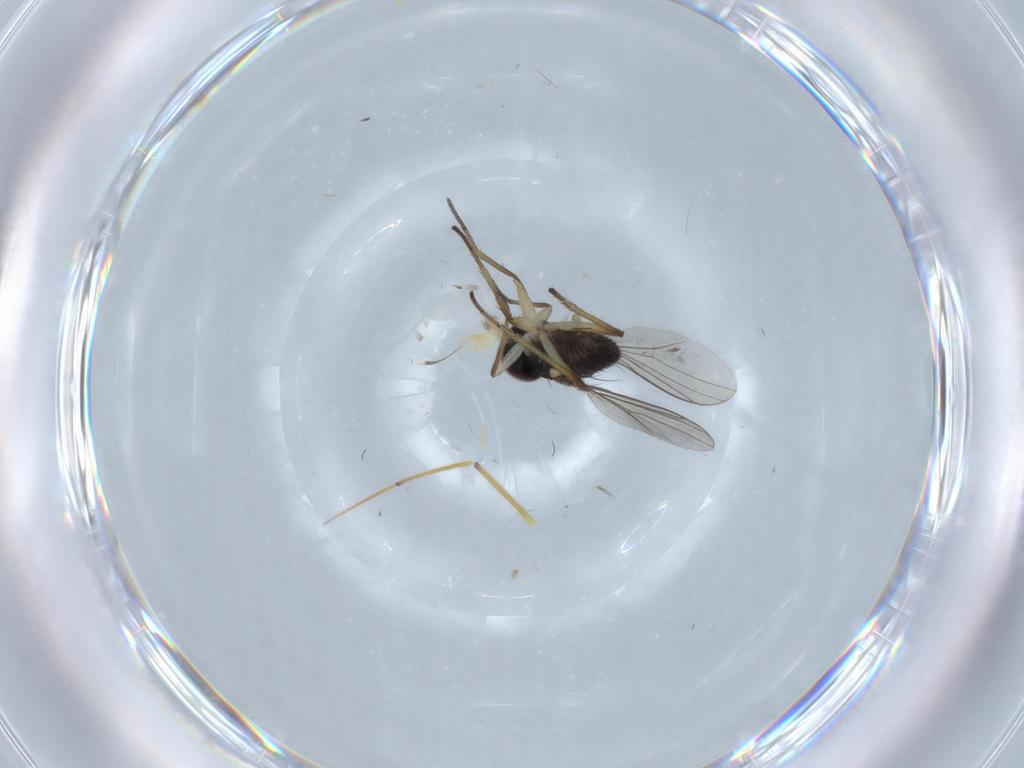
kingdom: Animalia
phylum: Arthropoda
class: Insecta
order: Diptera
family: Dolichopodidae
